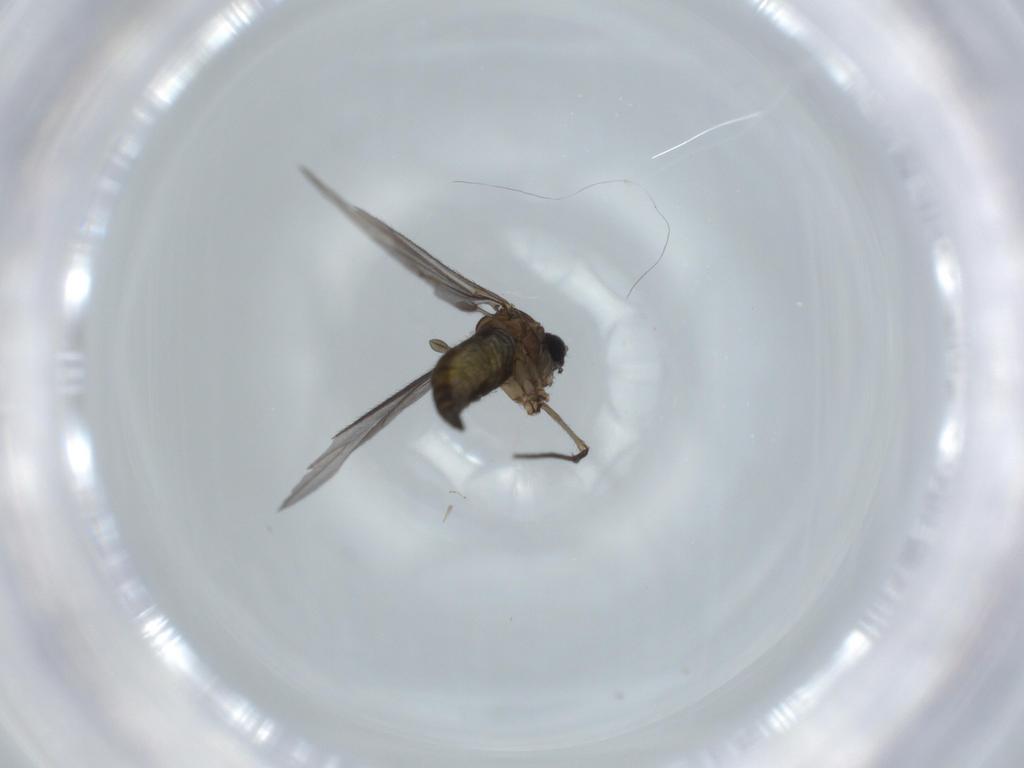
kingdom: Animalia
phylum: Arthropoda
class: Insecta
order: Diptera
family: Sciaridae
